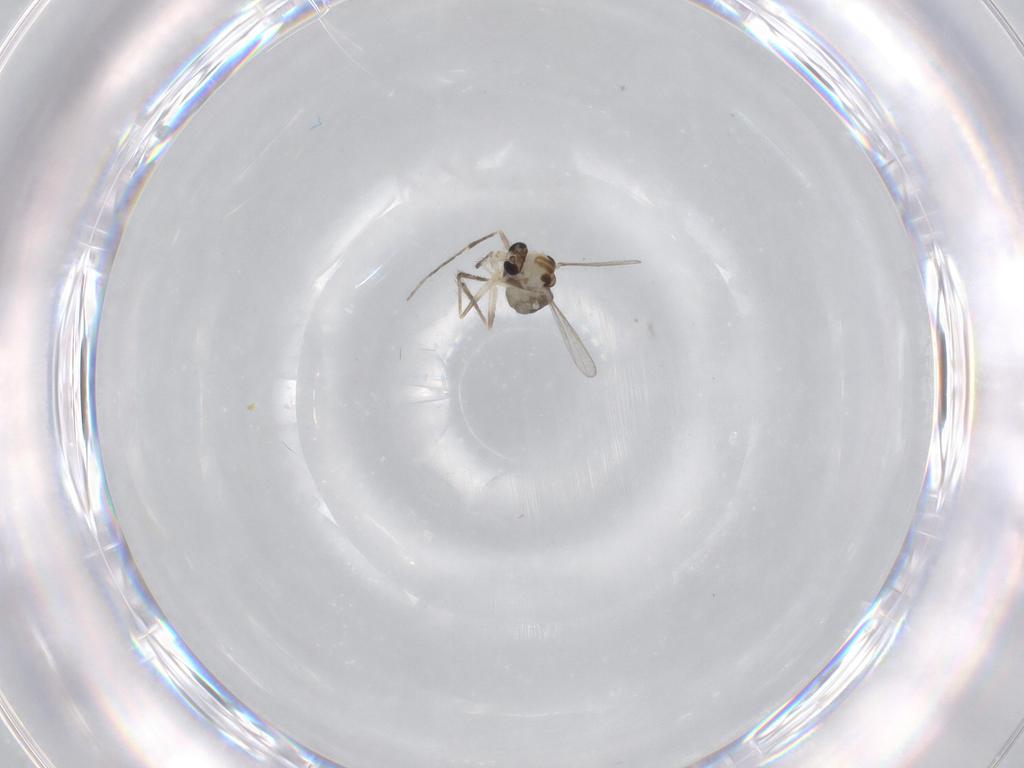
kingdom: Animalia
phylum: Arthropoda
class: Insecta
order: Diptera
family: Chironomidae
